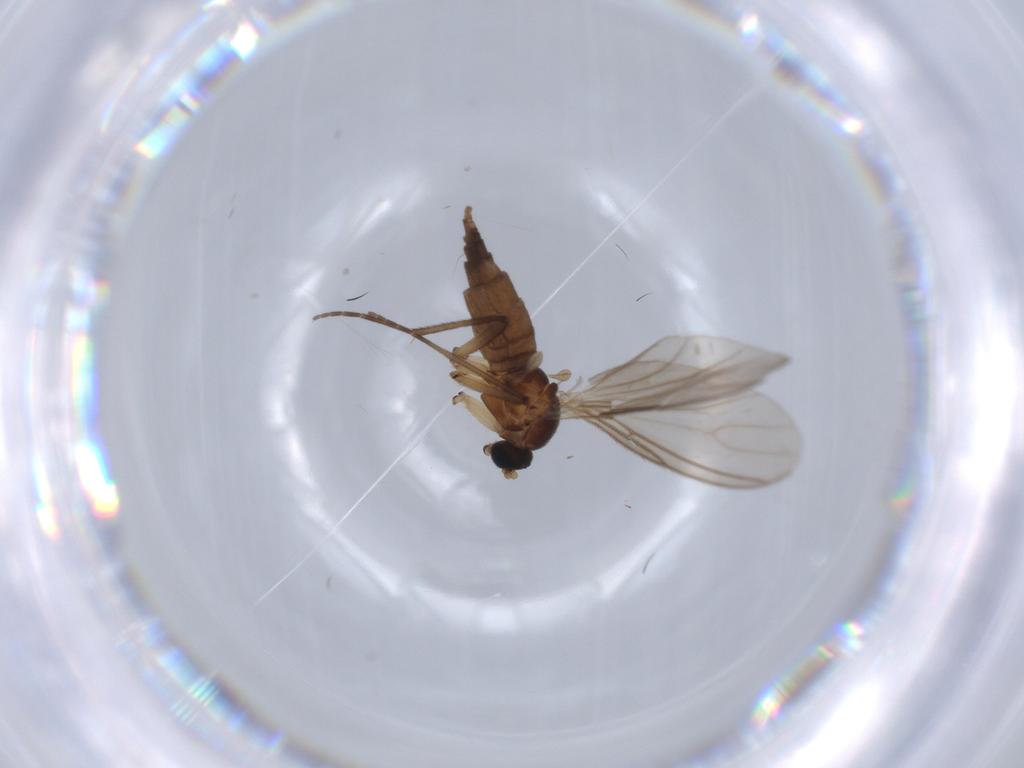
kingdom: Animalia
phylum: Arthropoda
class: Insecta
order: Diptera
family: Sciaridae
